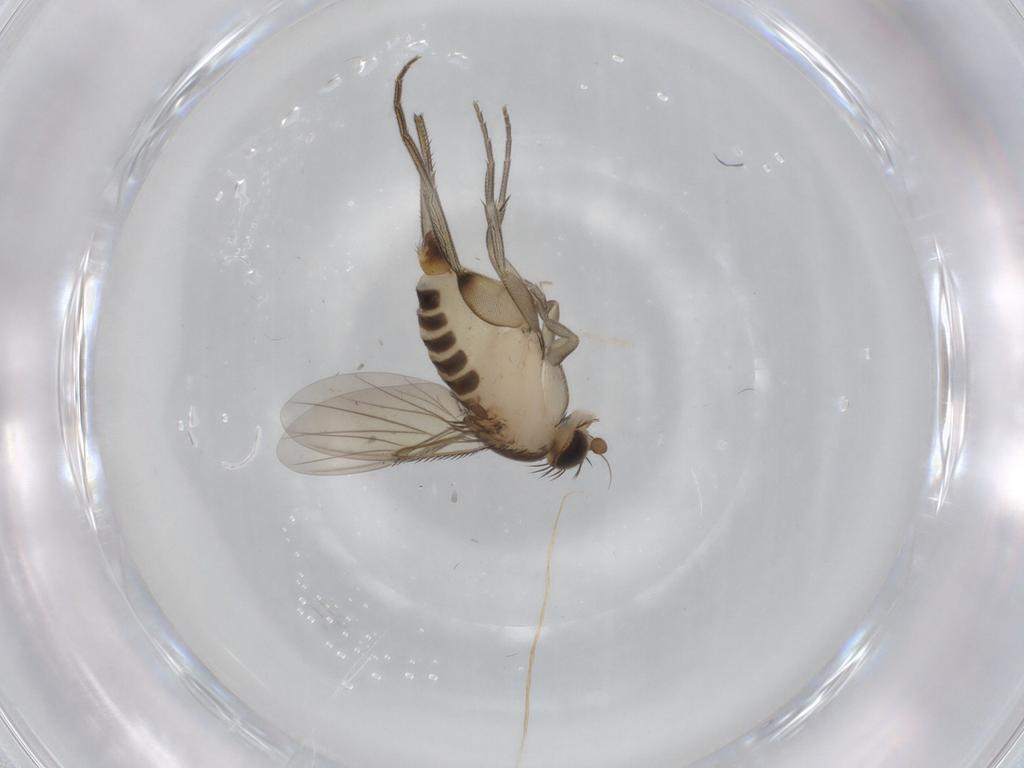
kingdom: Animalia
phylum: Arthropoda
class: Insecta
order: Diptera
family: Phoridae
